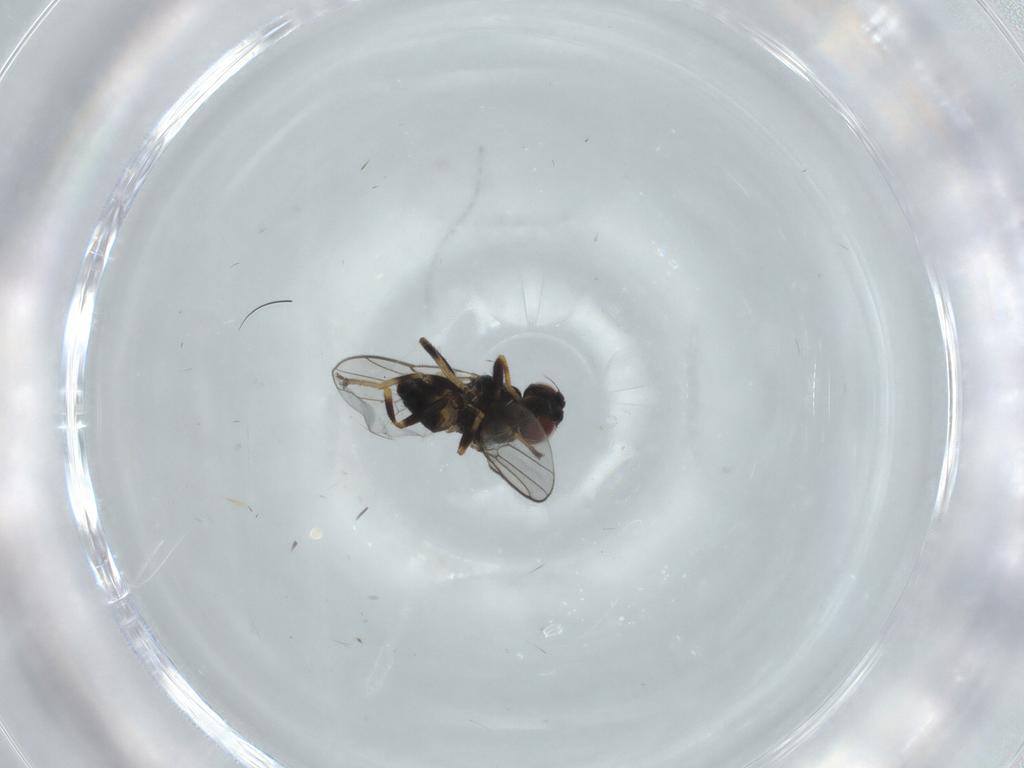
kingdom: Animalia
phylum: Arthropoda
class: Insecta
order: Diptera
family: Chloropidae
